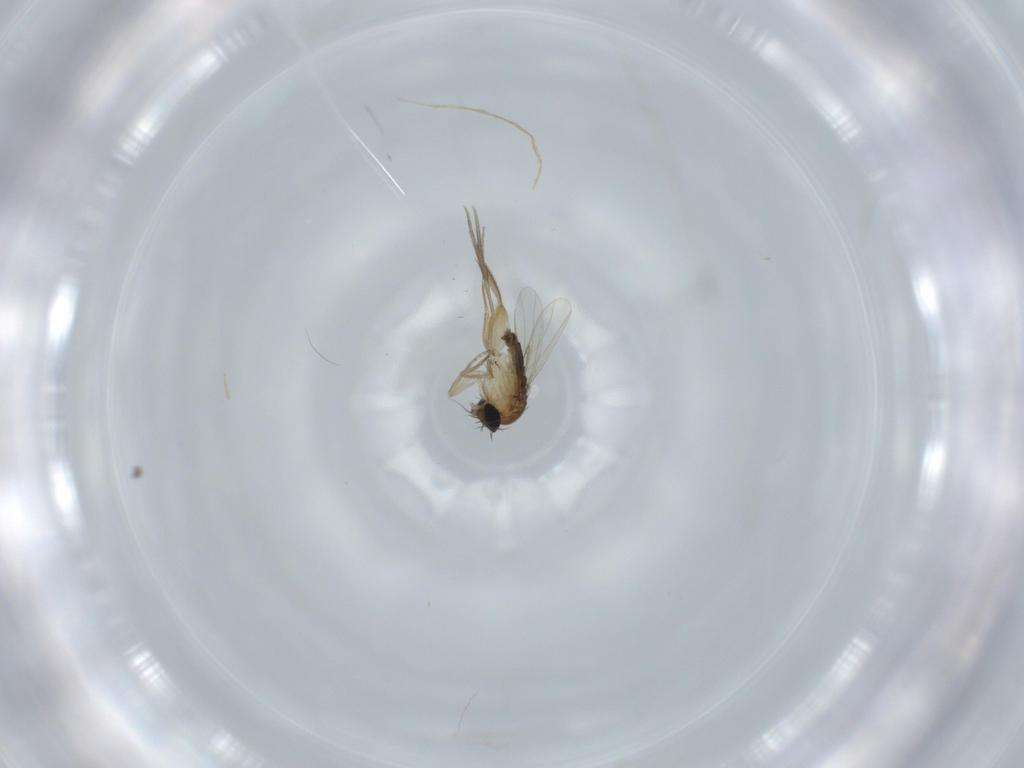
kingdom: Animalia
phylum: Arthropoda
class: Insecta
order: Diptera
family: Phoridae
